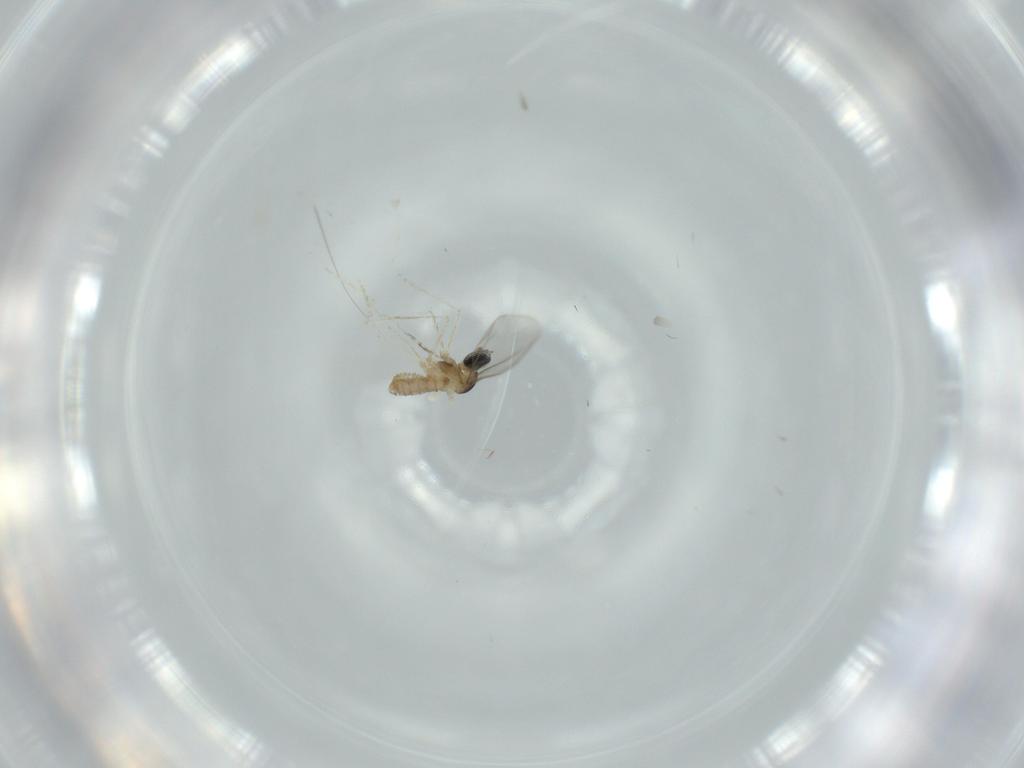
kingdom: Animalia
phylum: Arthropoda
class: Insecta
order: Diptera
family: Cecidomyiidae
